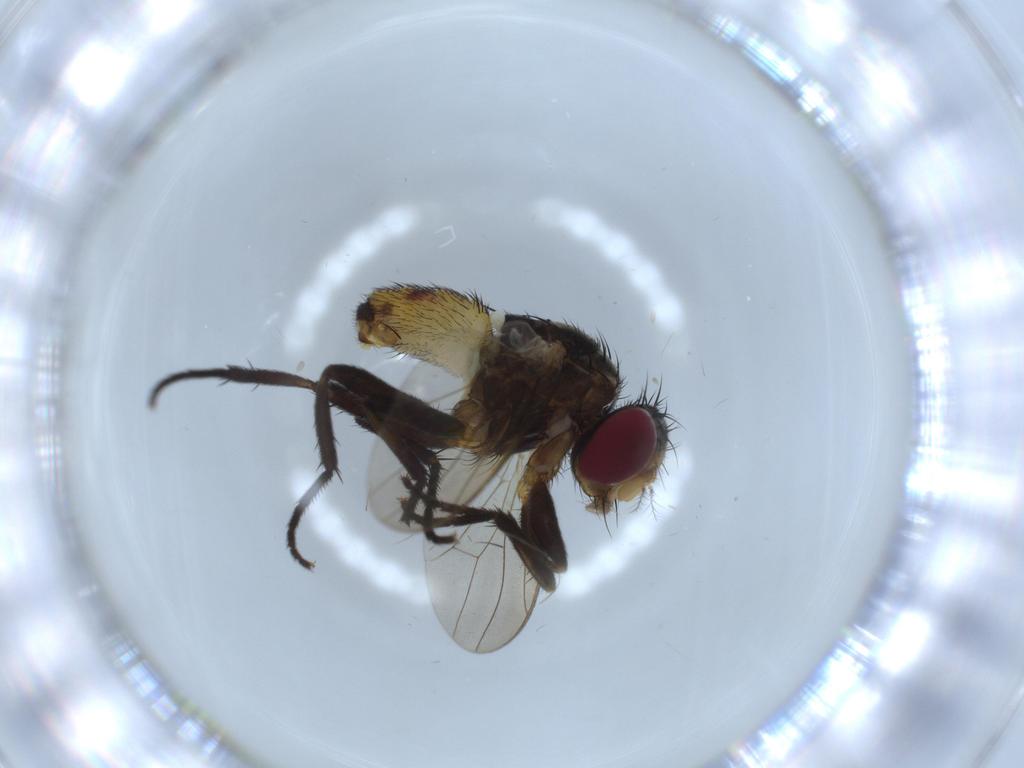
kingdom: Animalia
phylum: Arthropoda
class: Insecta
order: Diptera
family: Anthomyiidae
